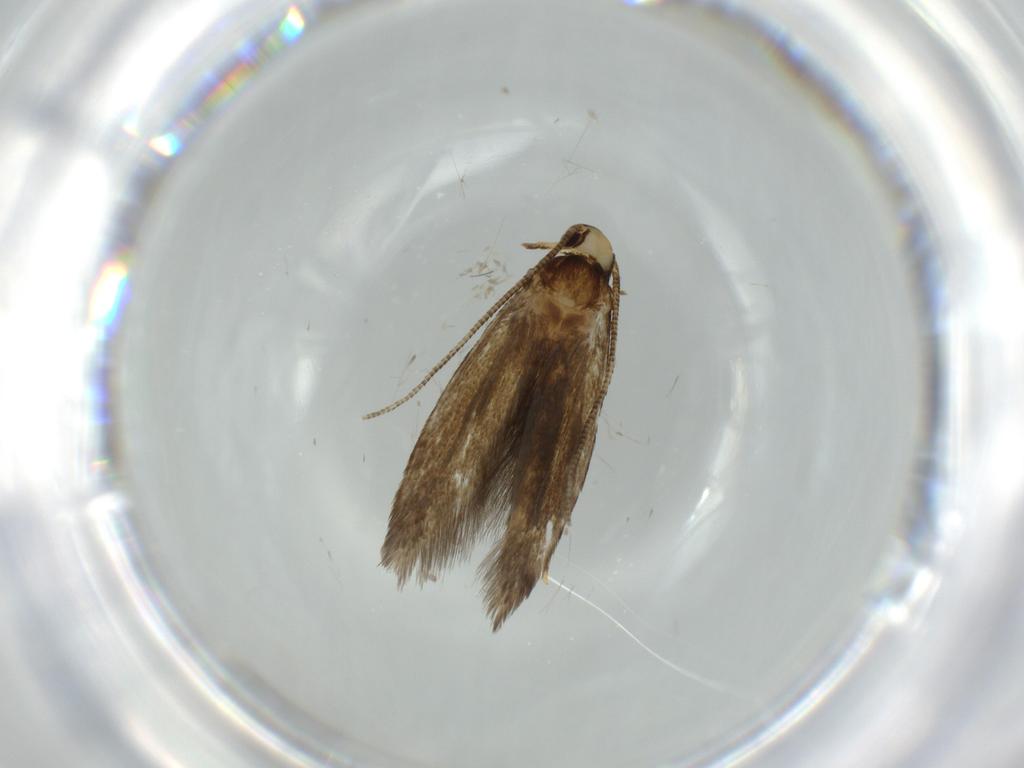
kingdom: Animalia
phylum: Arthropoda
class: Insecta
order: Lepidoptera
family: Tineidae
